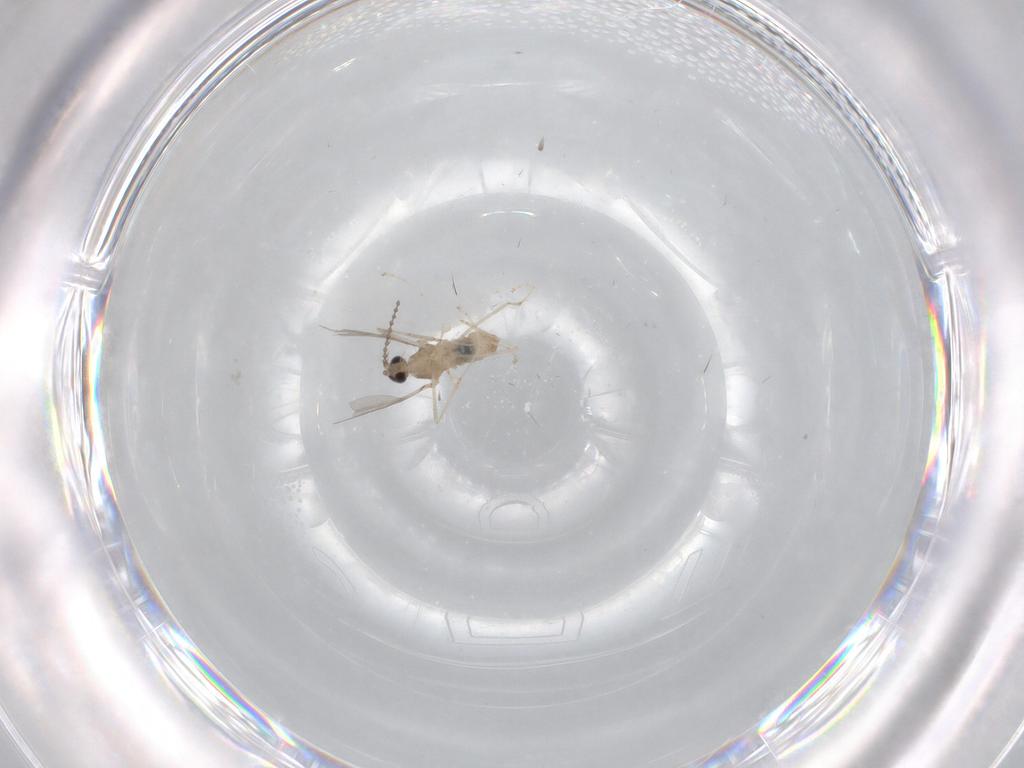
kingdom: Animalia
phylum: Arthropoda
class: Insecta
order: Diptera
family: Cecidomyiidae
